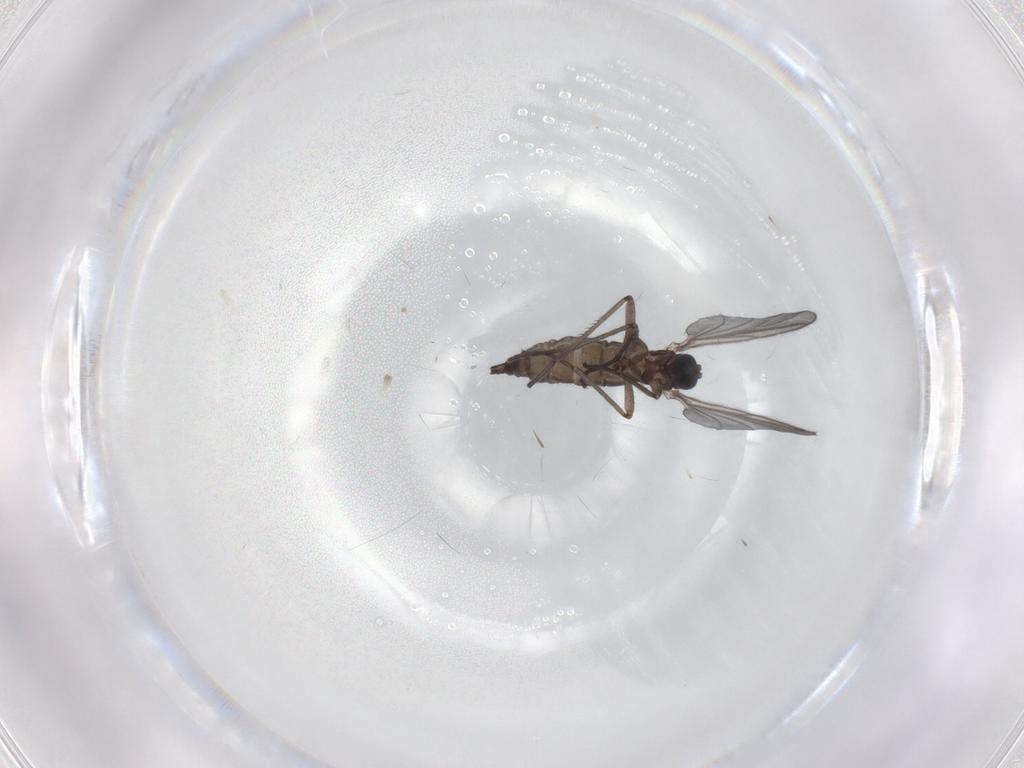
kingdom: Animalia
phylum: Arthropoda
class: Insecta
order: Diptera
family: Sciaridae
